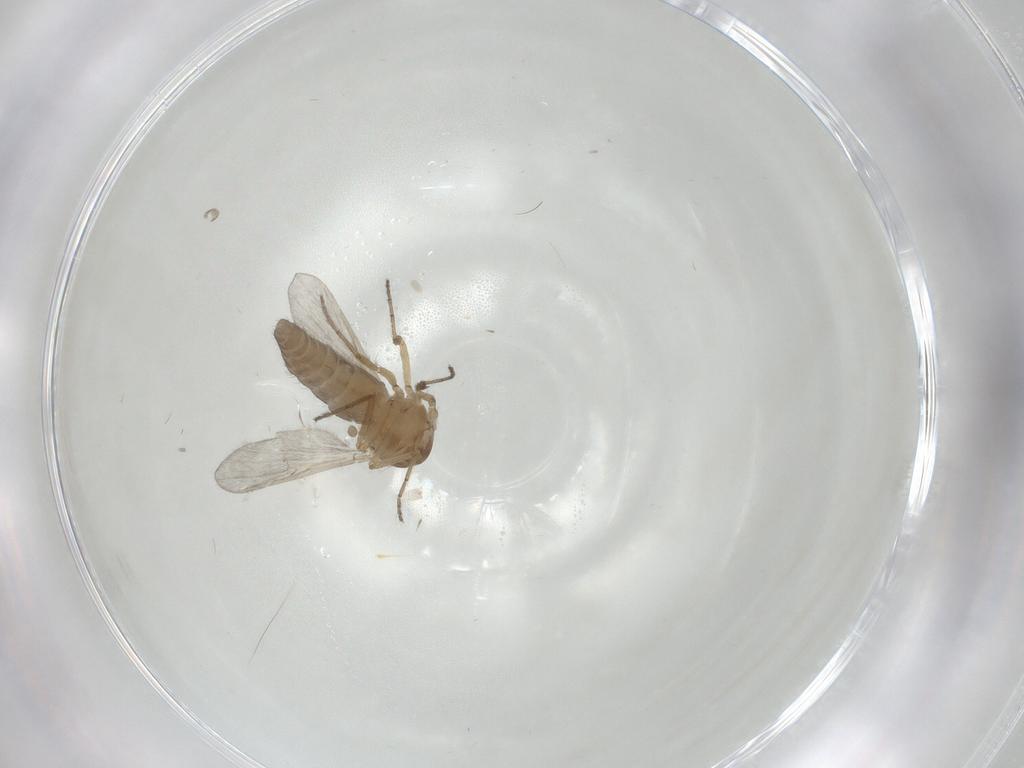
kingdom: Animalia
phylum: Arthropoda
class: Insecta
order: Diptera
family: Ceratopogonidae
